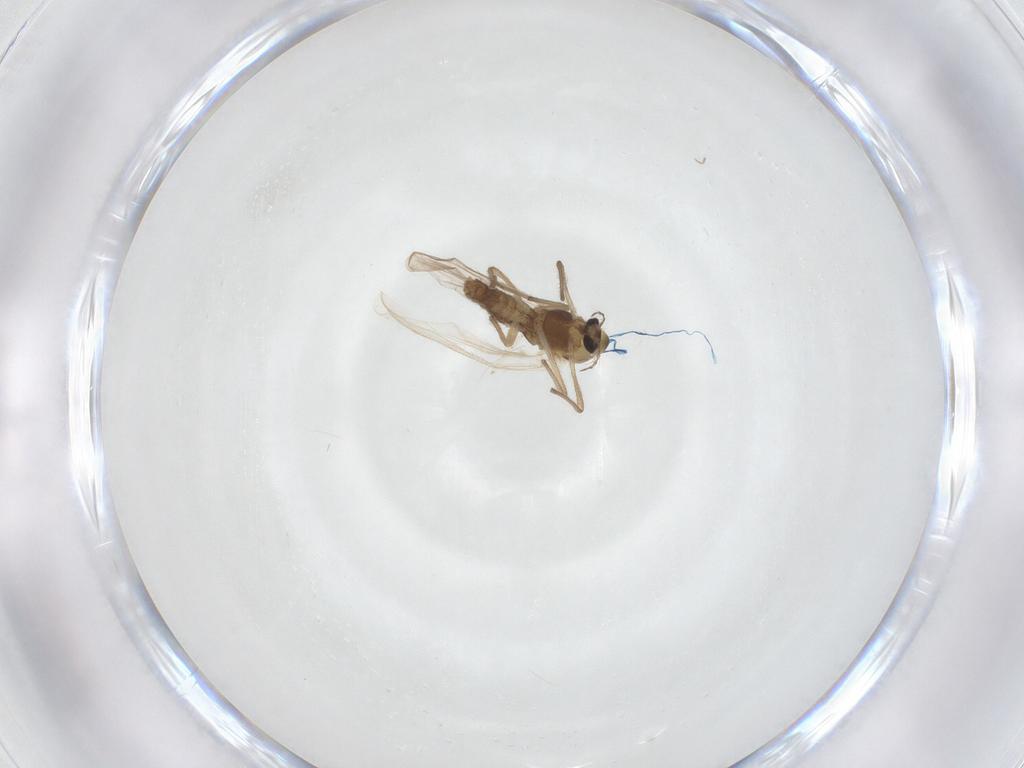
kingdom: Animalia
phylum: Arthropoda
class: Insecta
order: Diptera
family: Chironomidae
